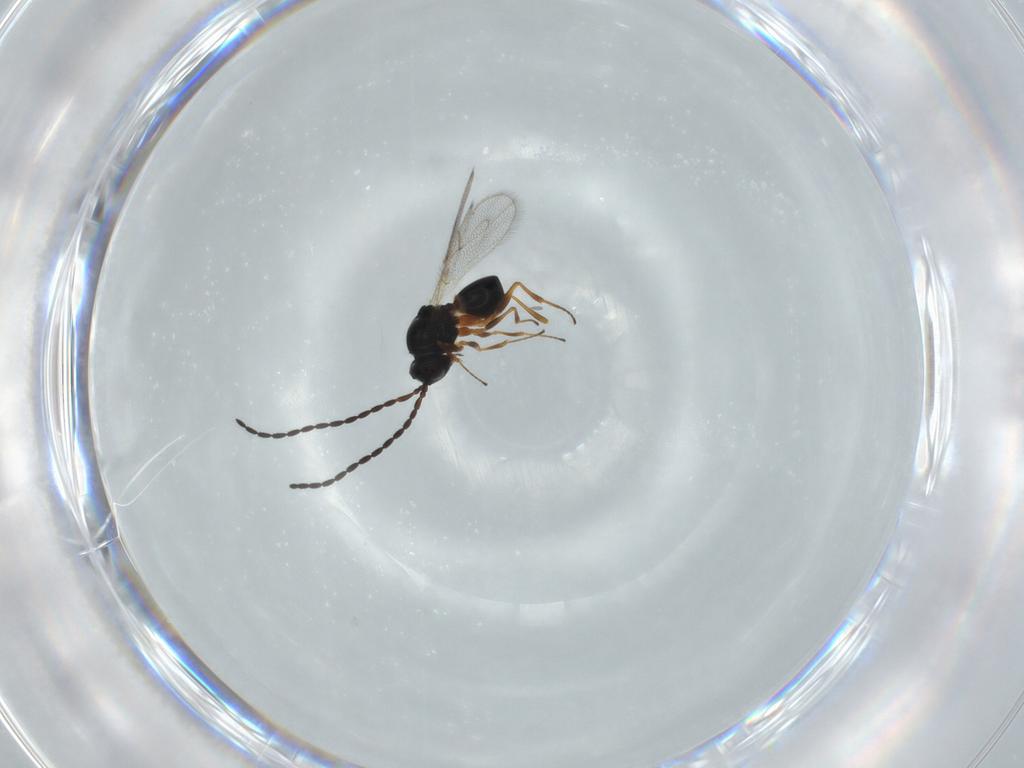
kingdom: Animalia
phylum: Arthropoda
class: Insecta
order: Hymenoptera
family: Figitidae
